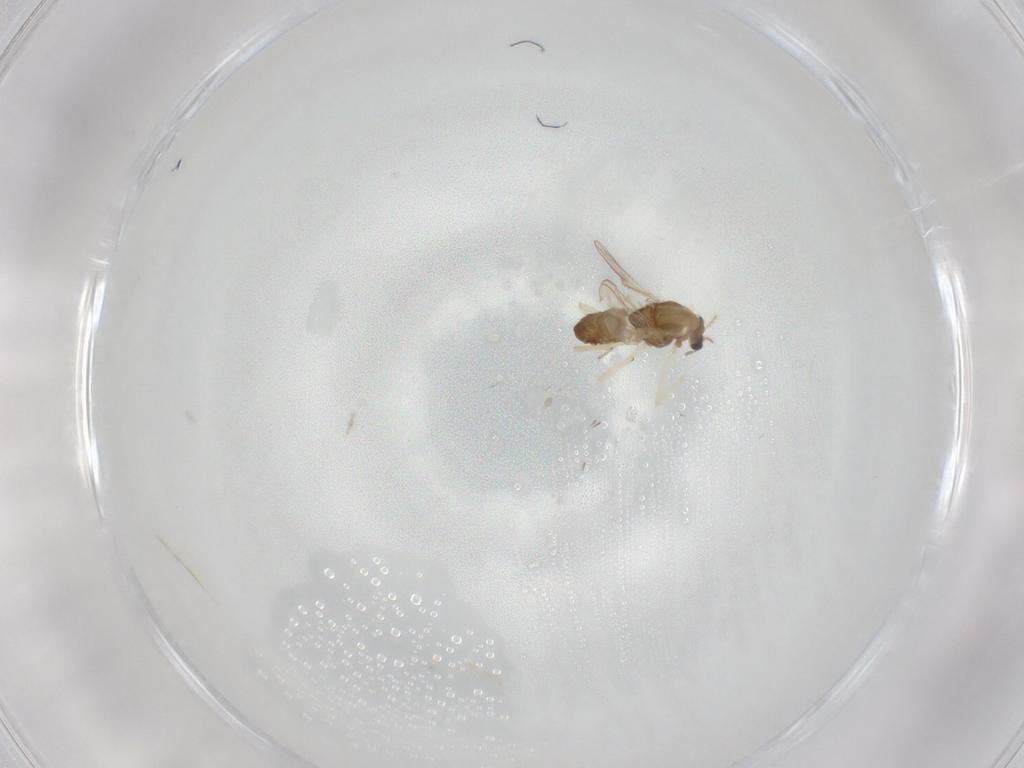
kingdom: Animalia
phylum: Arthropoda
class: Insecta
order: Diptera
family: Chironomidae
